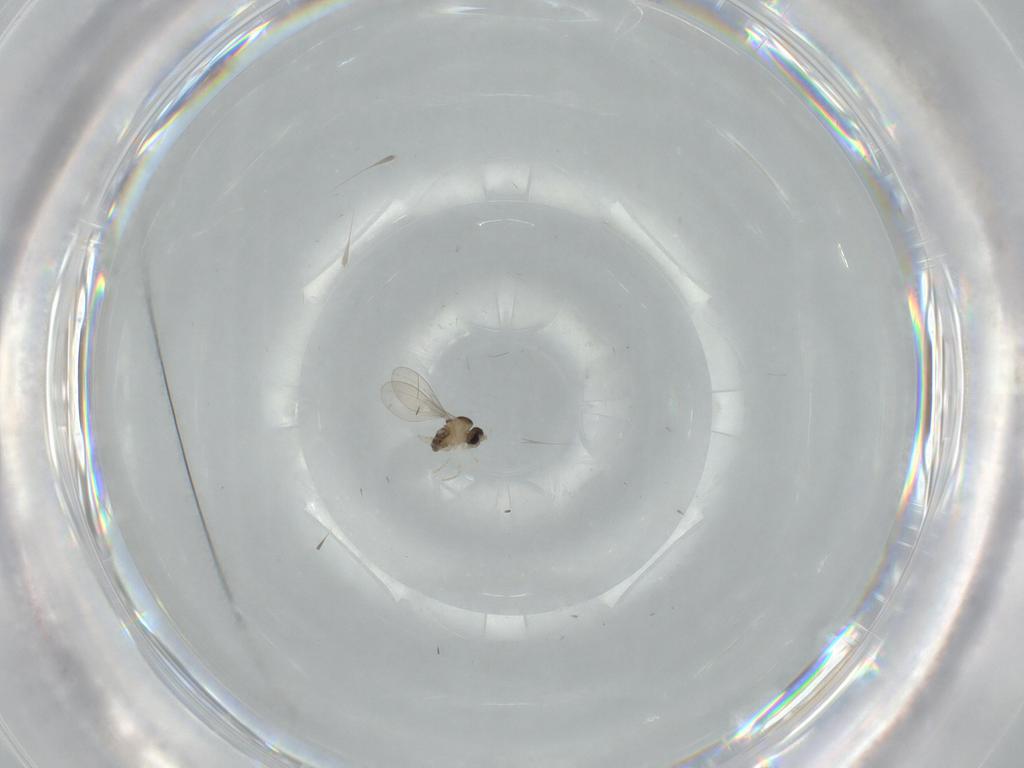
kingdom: Animalia
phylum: Arthropoda
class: Insecta
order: Diptera
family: Cecidomyiidae
